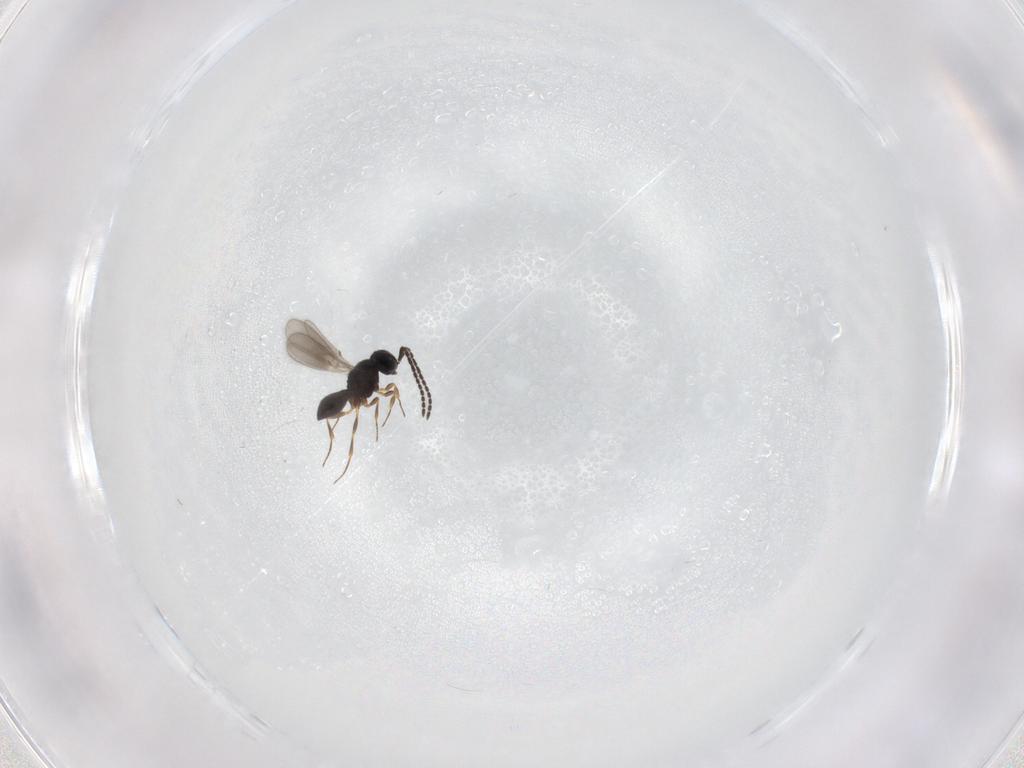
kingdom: Animalia
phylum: Arthropoda
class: Insecta
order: Hymenoptera
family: Scelionidae
